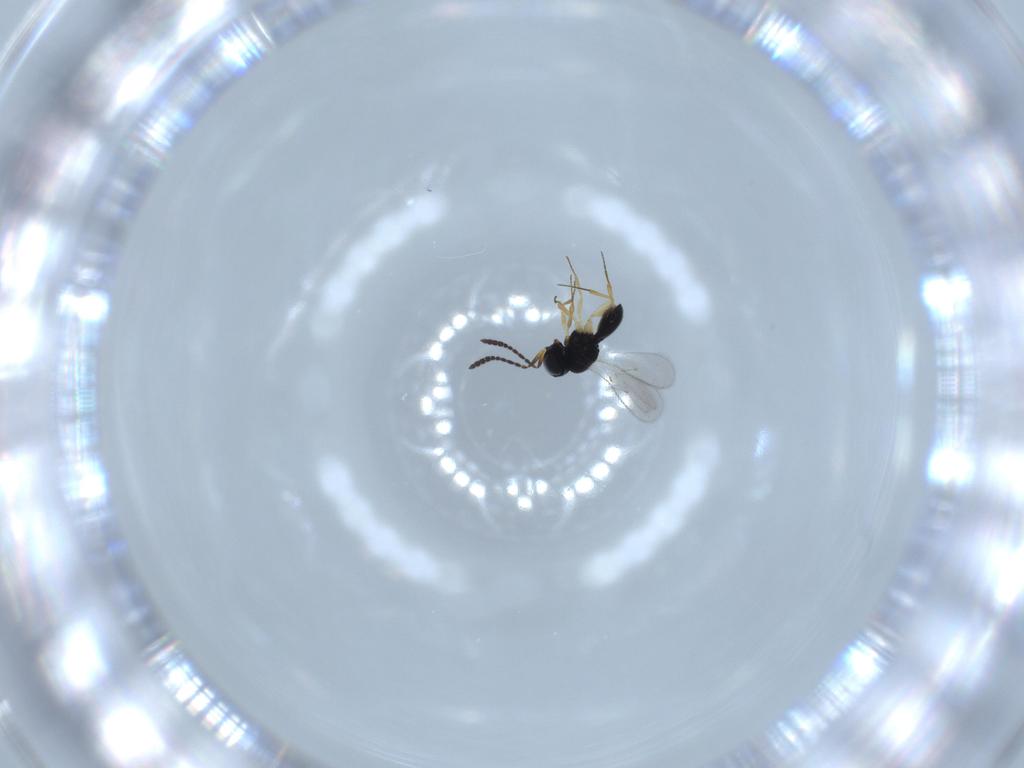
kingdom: Animalia
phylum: Arthropoda
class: Insecta
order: Hymenoptera
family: Scelionidae
